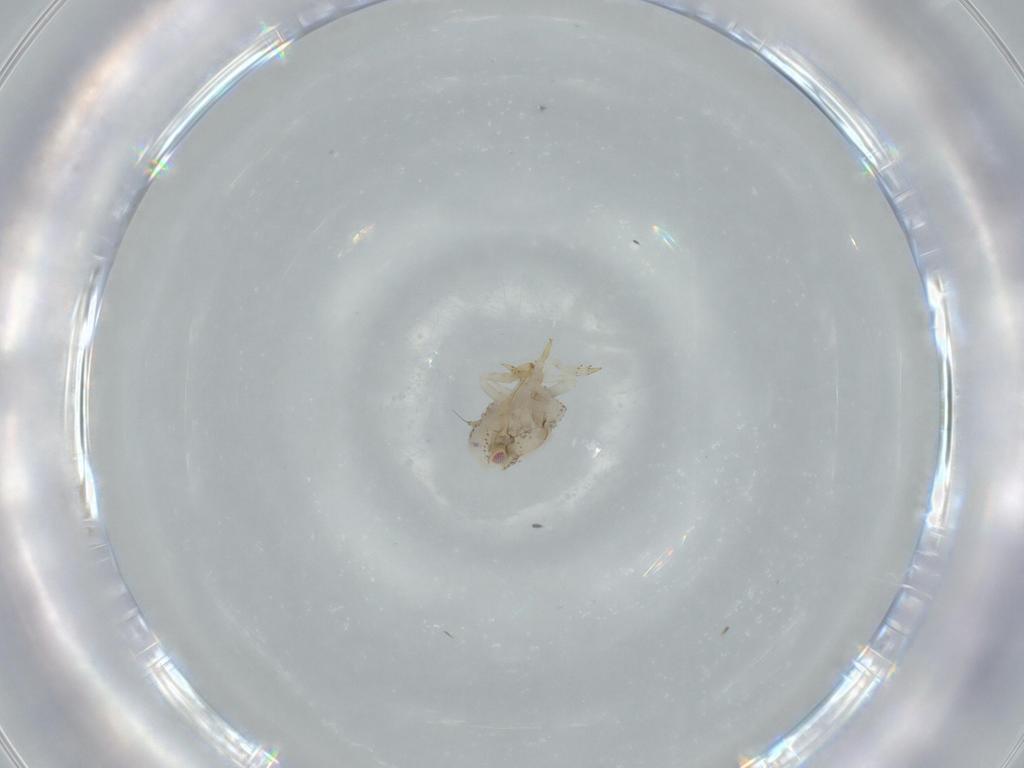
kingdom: Animalia
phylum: Arthropoda
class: Insecta
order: Hemiptera
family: Acanaloniidae
